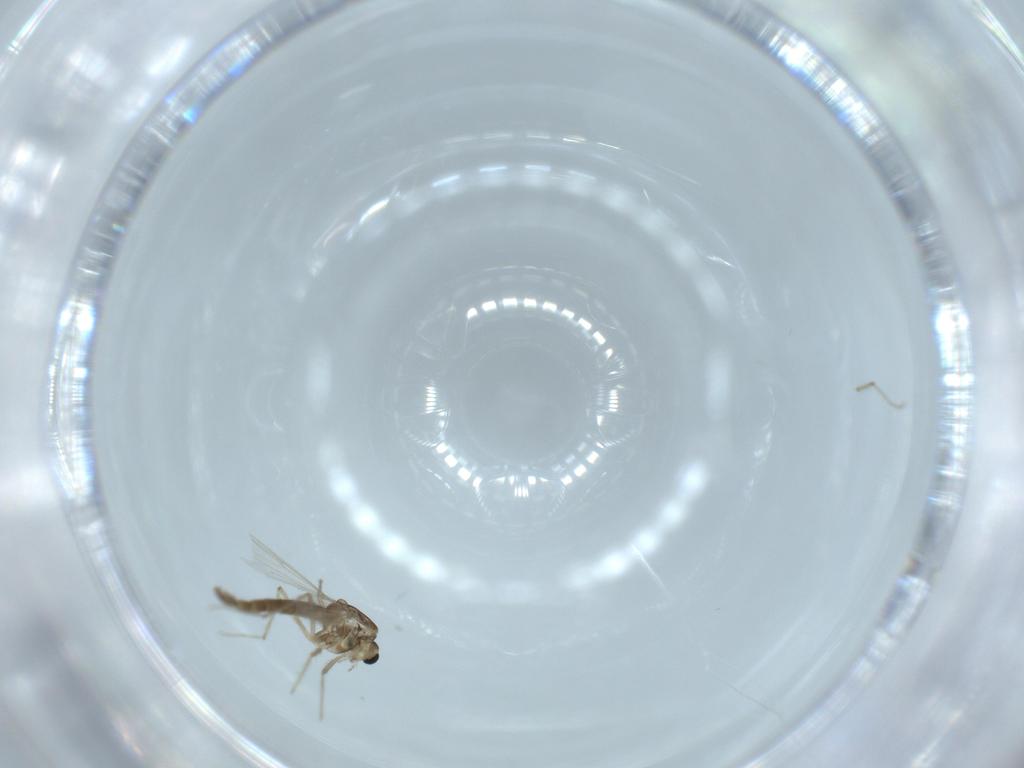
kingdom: Animalia
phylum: Arthropoda
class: Insecta
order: Diptera
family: Chironomidae
